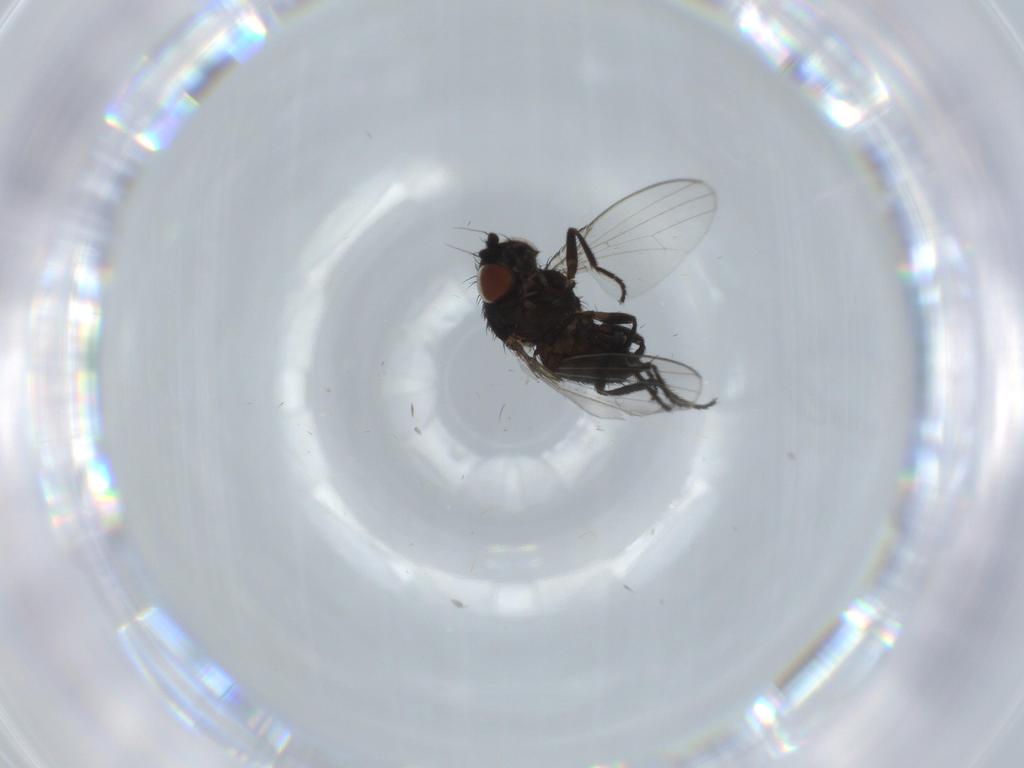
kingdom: Animalia
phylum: Arthropoda
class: Insecta
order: Diptera
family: Milichiidae
